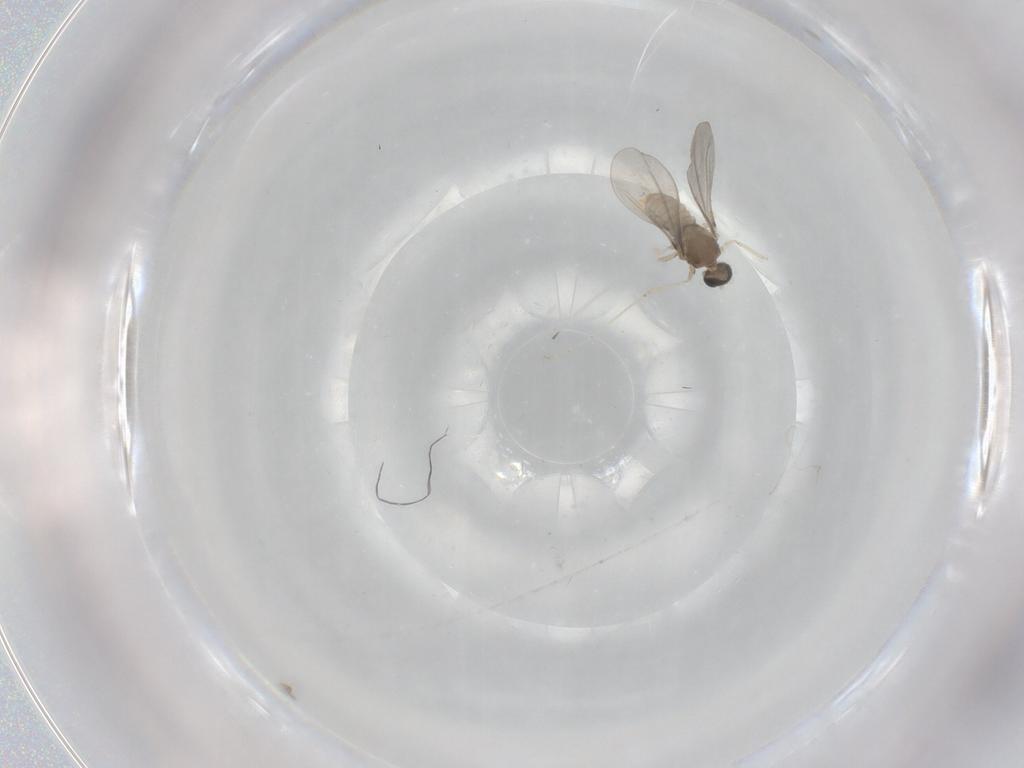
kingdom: Animalia
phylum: Arthropoda
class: Insecta
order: Diptera
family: Cecidomyiidae
